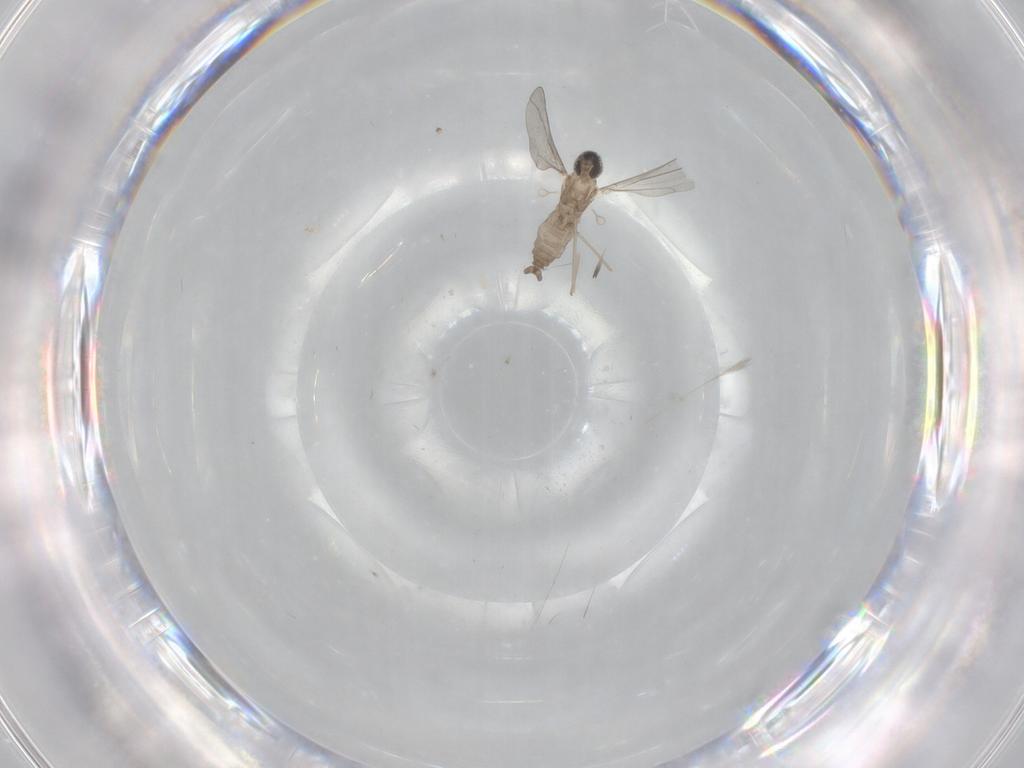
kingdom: Animalia
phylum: Arthropoda
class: Insecta
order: Diptera
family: Cecidomyiidae
